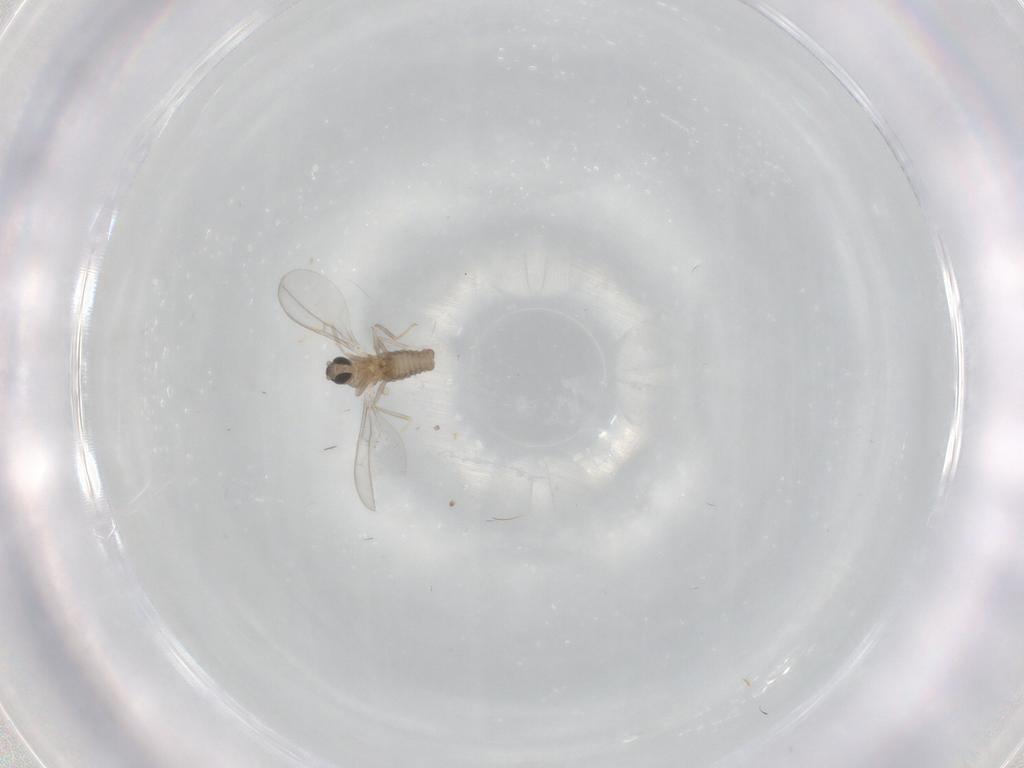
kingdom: Animalia
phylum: Arthropoda
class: Insecta
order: Diptera
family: Cecidomyiidae
